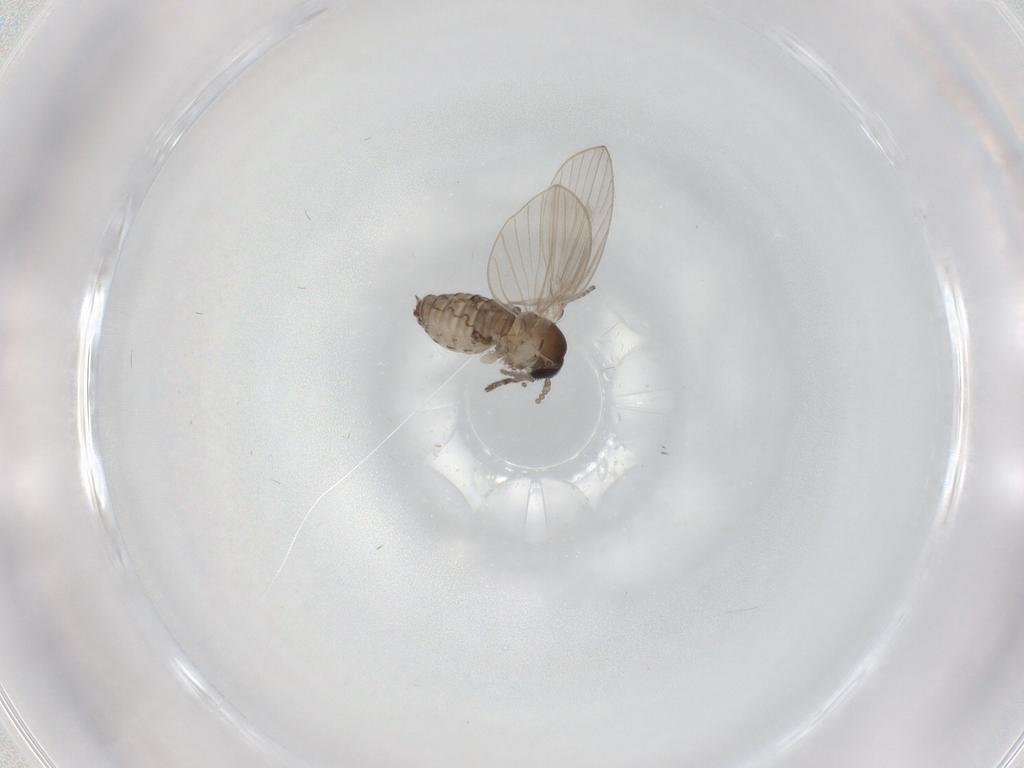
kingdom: Animalia
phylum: Arthropoda
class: Insecta
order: Diptera
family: Psychodidae
